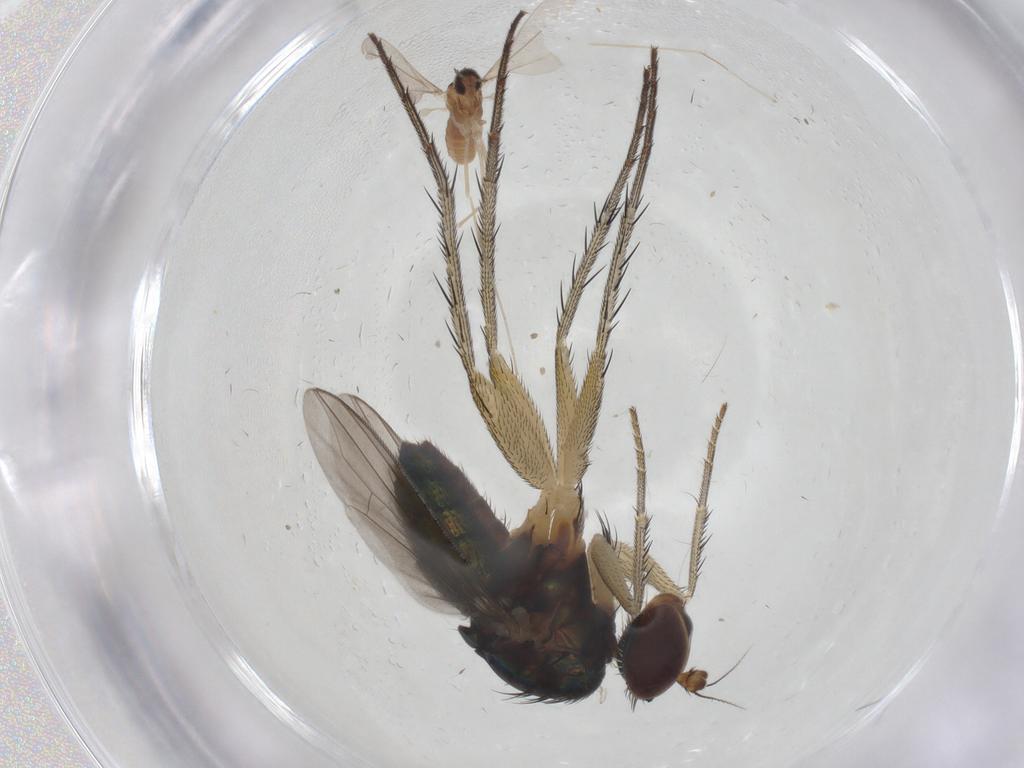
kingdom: Animalia
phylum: Arthropoda
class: Insecta
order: Diptera
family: Dolichopodidae
